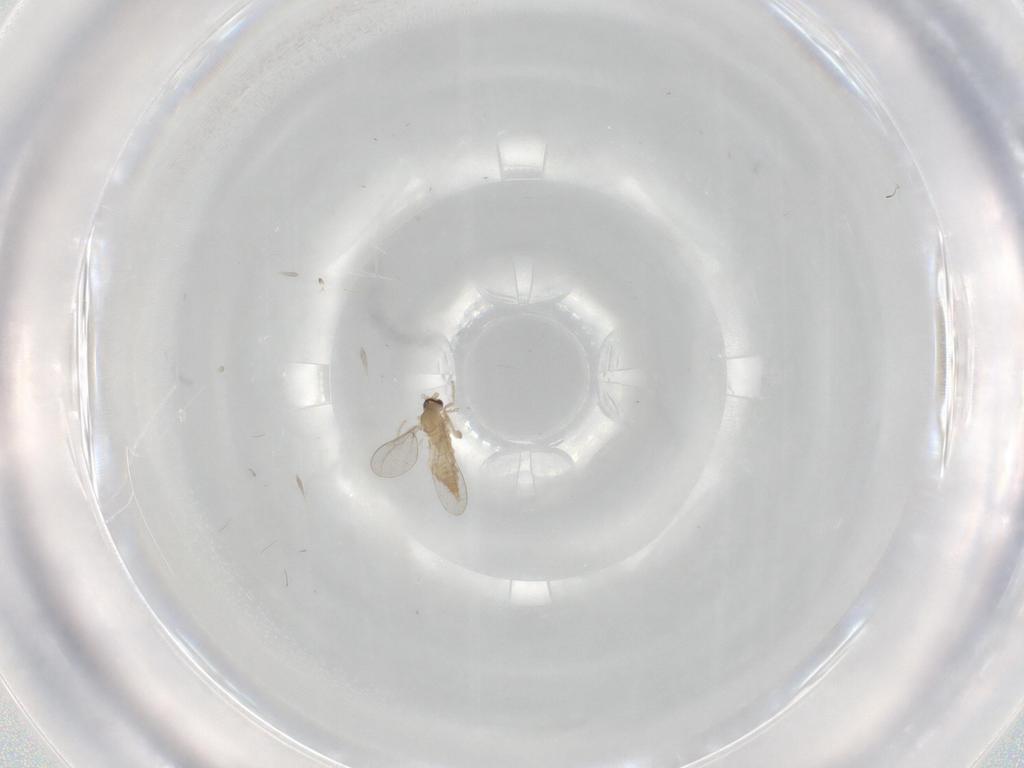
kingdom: Animalia
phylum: Arthropoda
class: Insecta
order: Diptera
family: Cecidomyiidae
